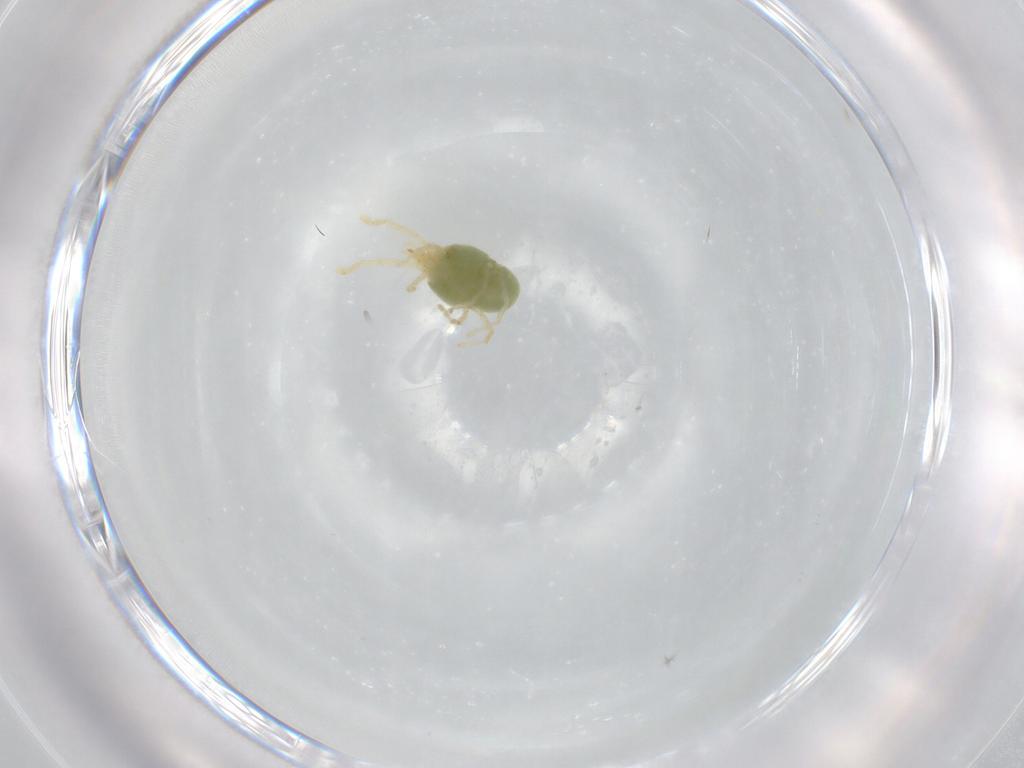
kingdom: Animalia
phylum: Arthropoda
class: Arachnida
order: Trombidiformes
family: Erythraeidae
